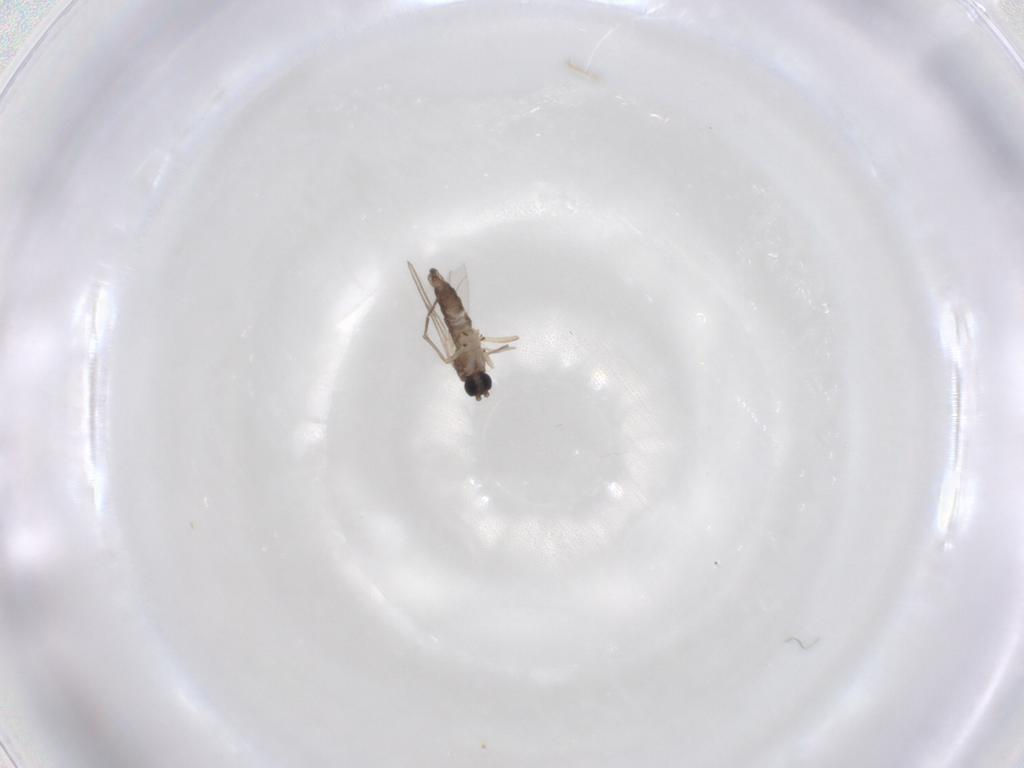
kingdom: Animalia
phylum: Arthropoda
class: Insecta
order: Diptera
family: Sciaridae
